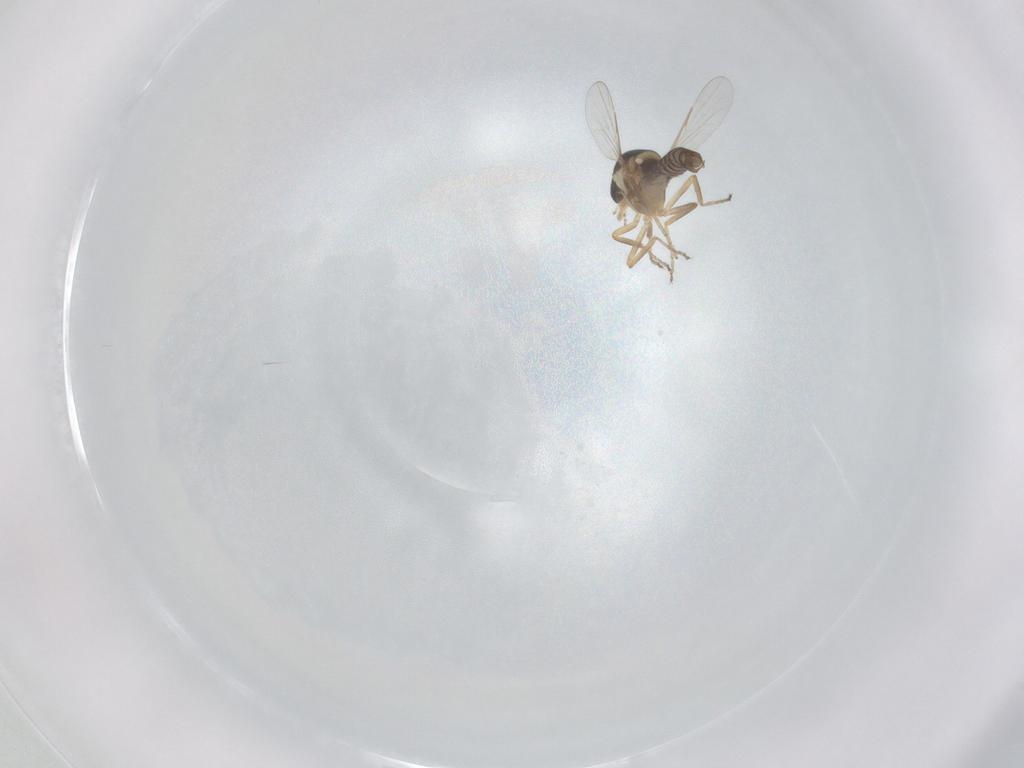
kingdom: Animalia
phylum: Arthropoda
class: Insecta
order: Diptera
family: Ceratopogonidae
